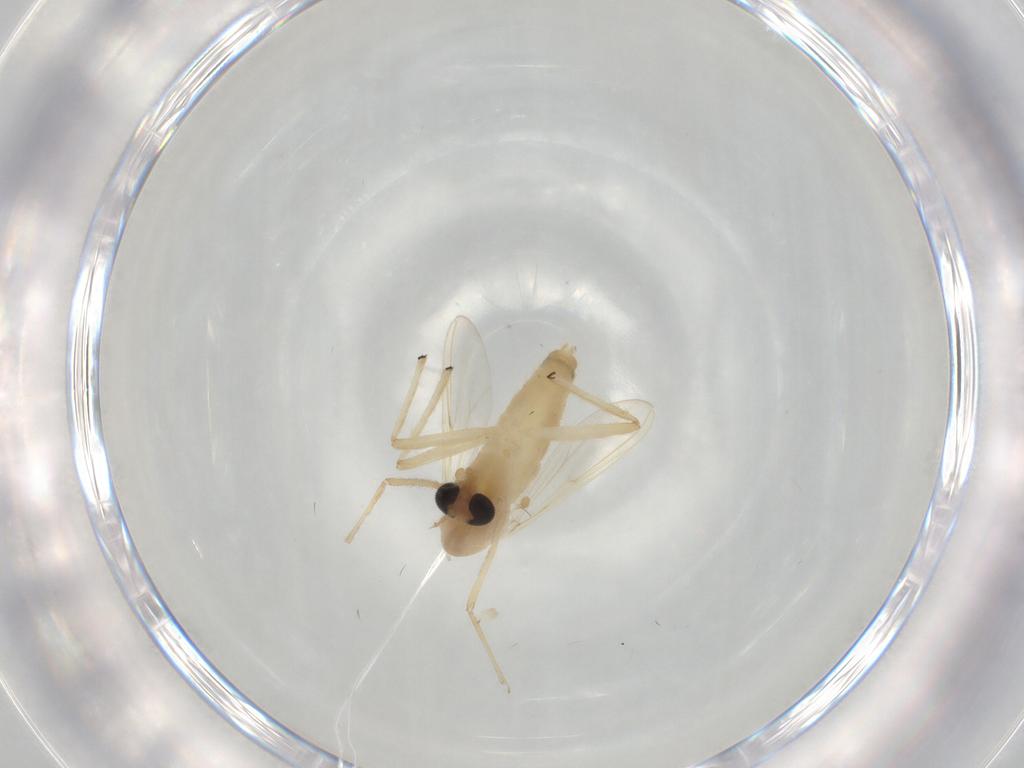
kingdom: Animalia
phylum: Arthropoda
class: Insecta
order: Diptera
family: Chironomidae
